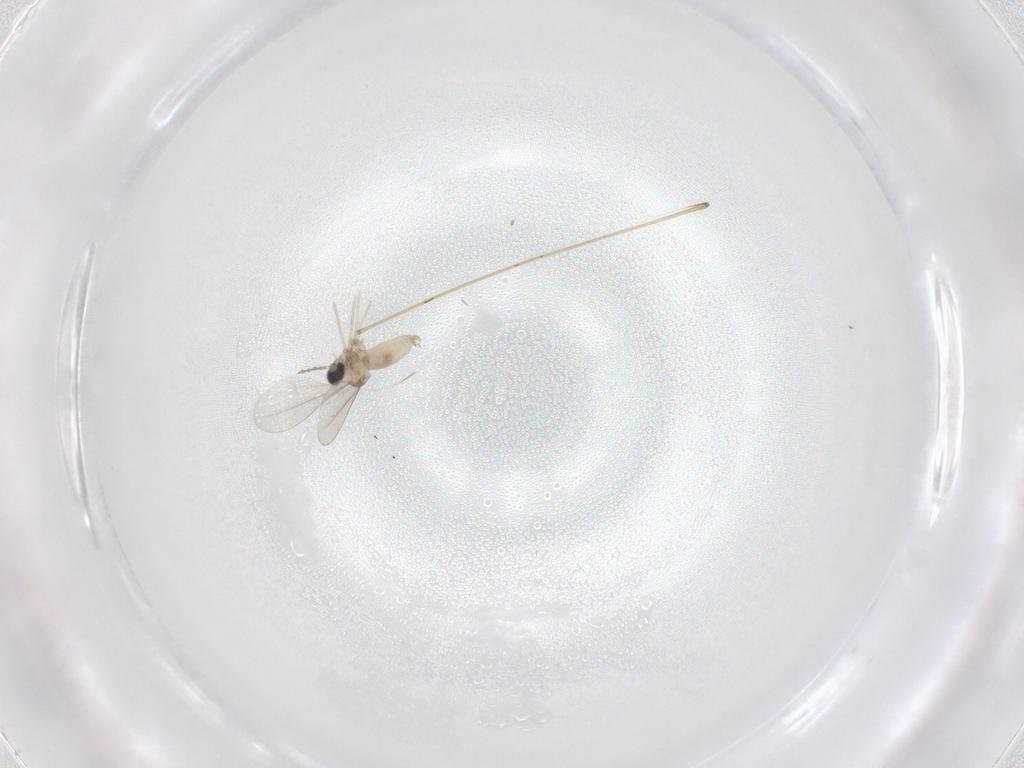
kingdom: Animalia
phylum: Arthropoda
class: Insecta
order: Diptera
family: Cecidomyiidae
